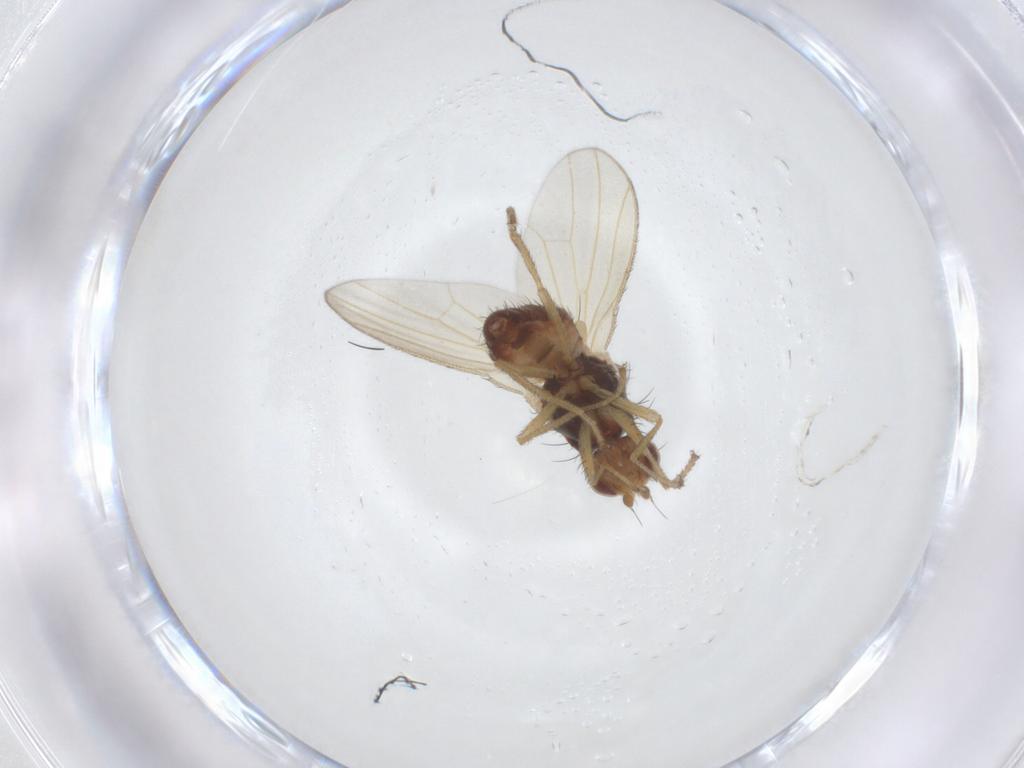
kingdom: Animalia
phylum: Arthropoda
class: Insecta
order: Diptera
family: Heleomyzidae
